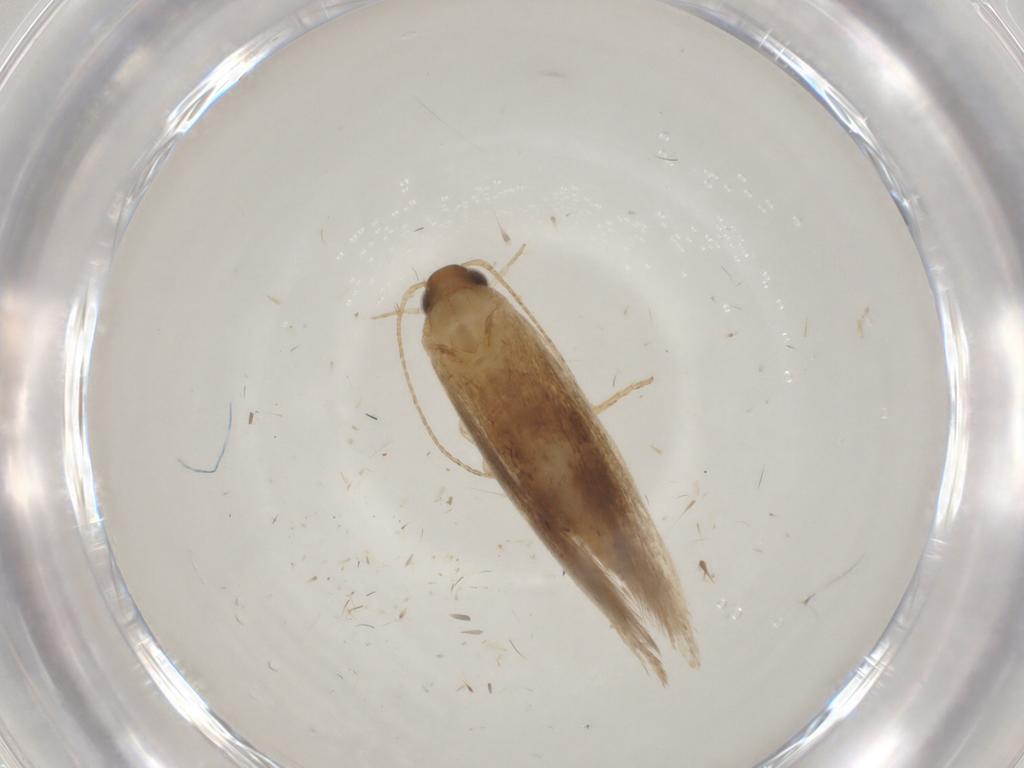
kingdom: Animalia
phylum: Arthropoda
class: Insecta
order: Lepidoptera
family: Gelechiidae
